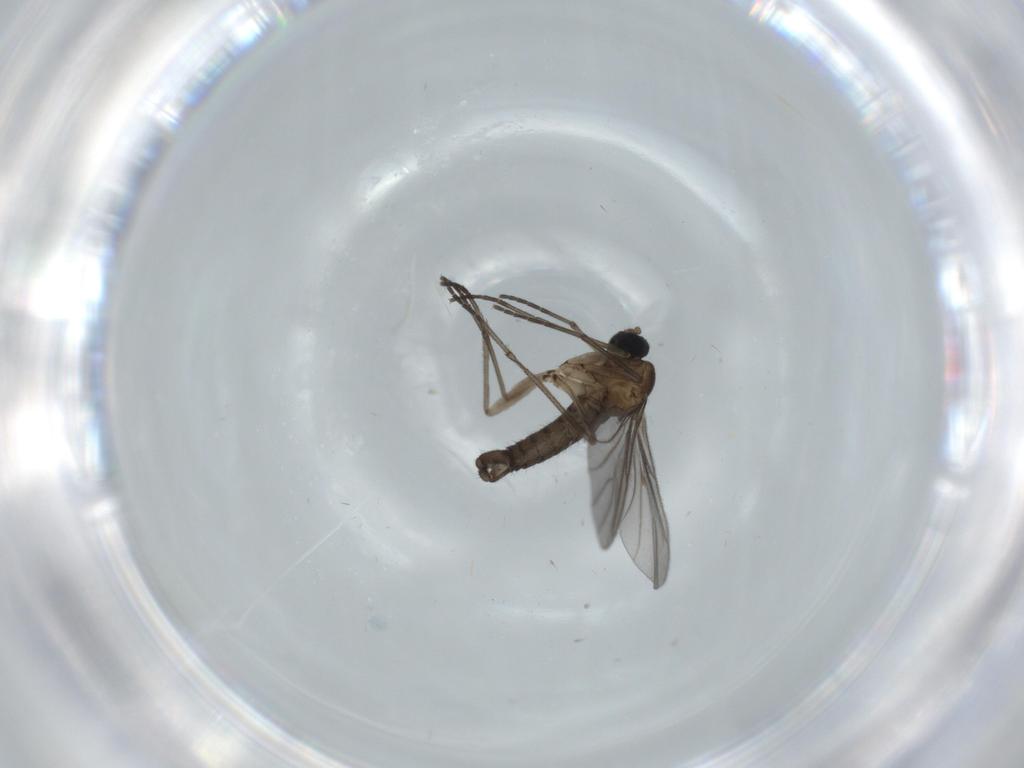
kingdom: Animalia
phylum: Arthropoda
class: Insecta
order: Diptera
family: Sciaridae
